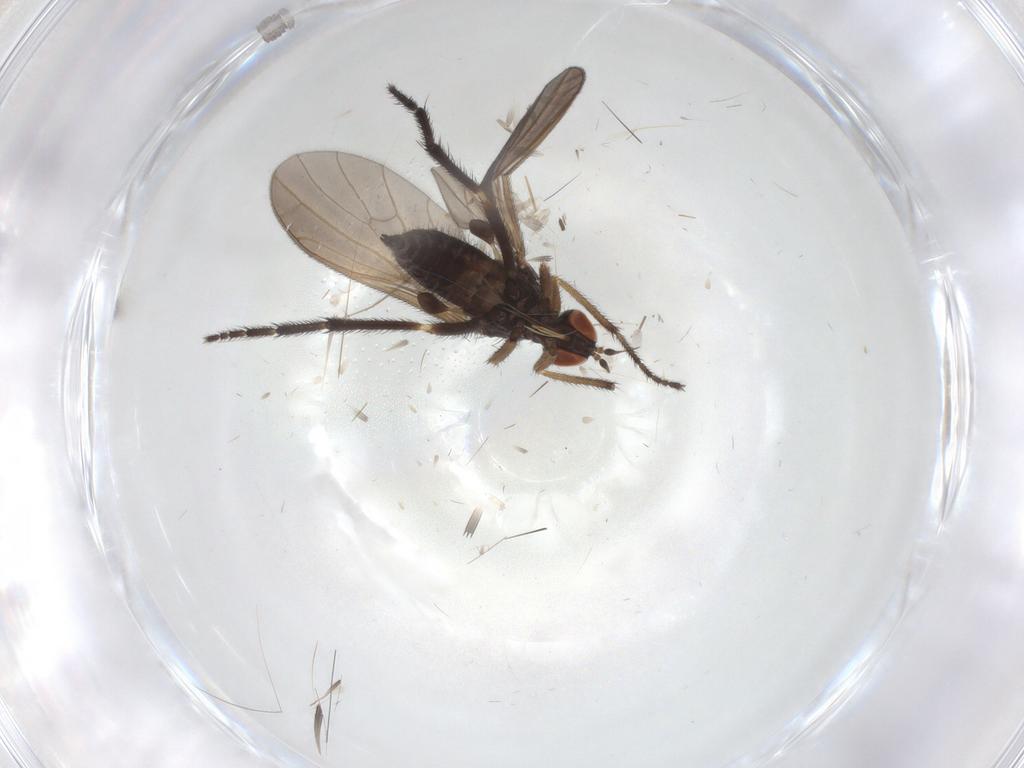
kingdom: Animalia
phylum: Arthropoda
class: Insecta
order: Diptera
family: Empididae
